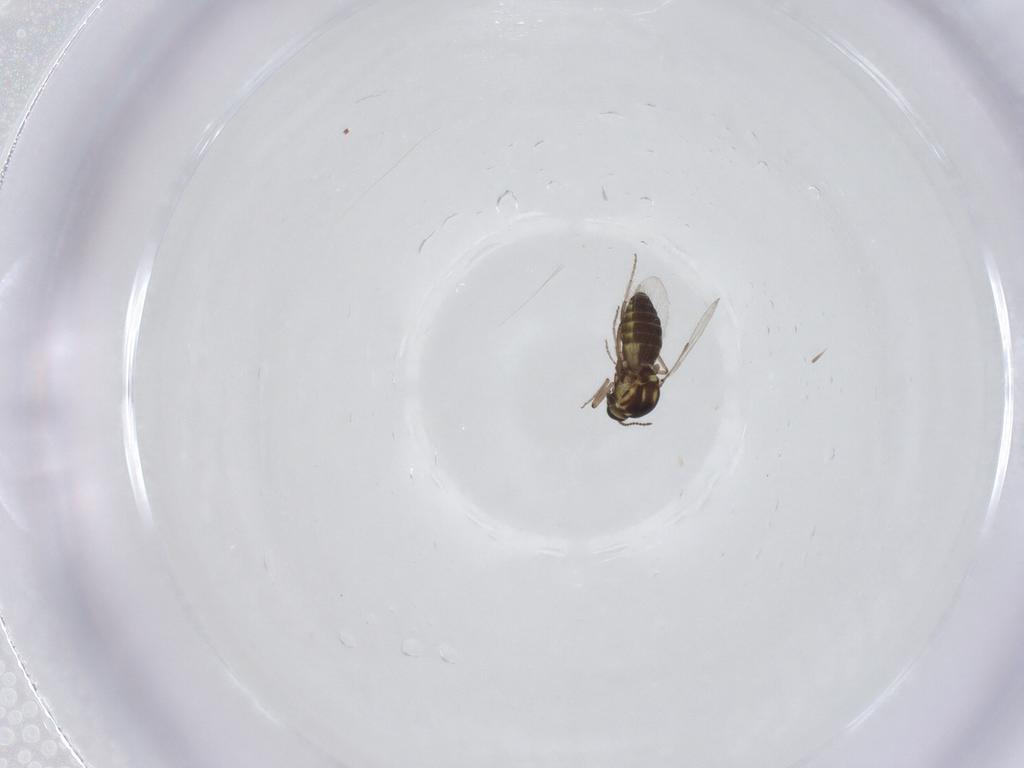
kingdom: Animalia
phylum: Arthropoda
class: Insecta
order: Diptera
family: Ceratopogonidae
